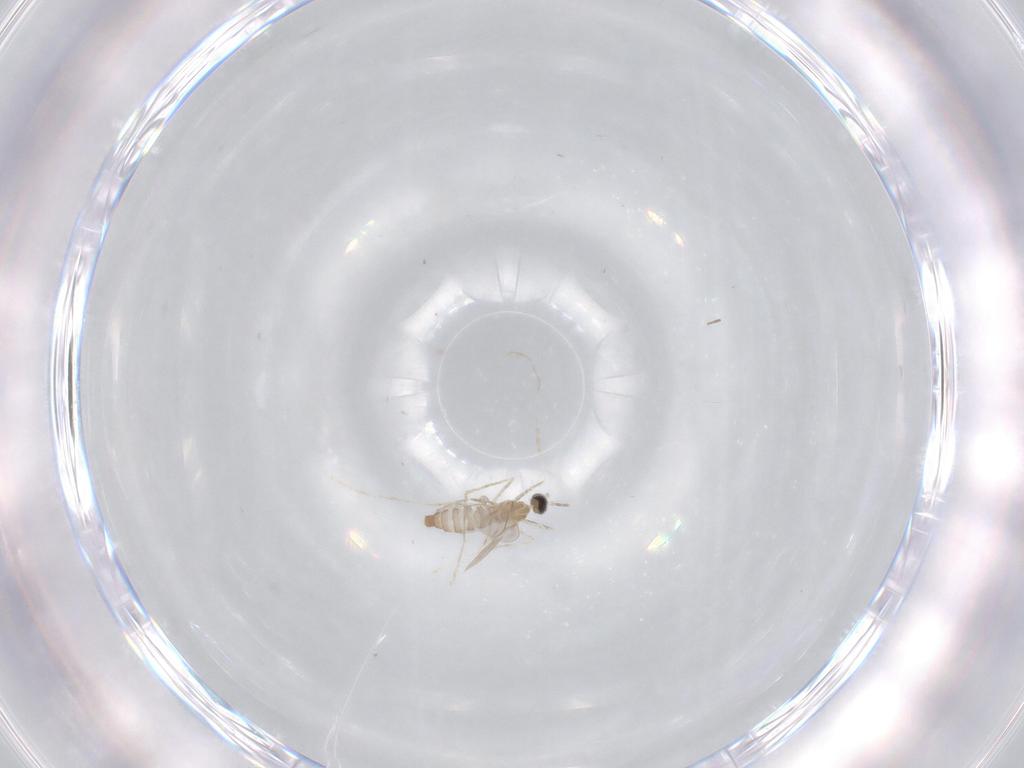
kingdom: Animalia
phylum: Arthropoda
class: Insecta
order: Diptera
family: Cecidomyiidae
